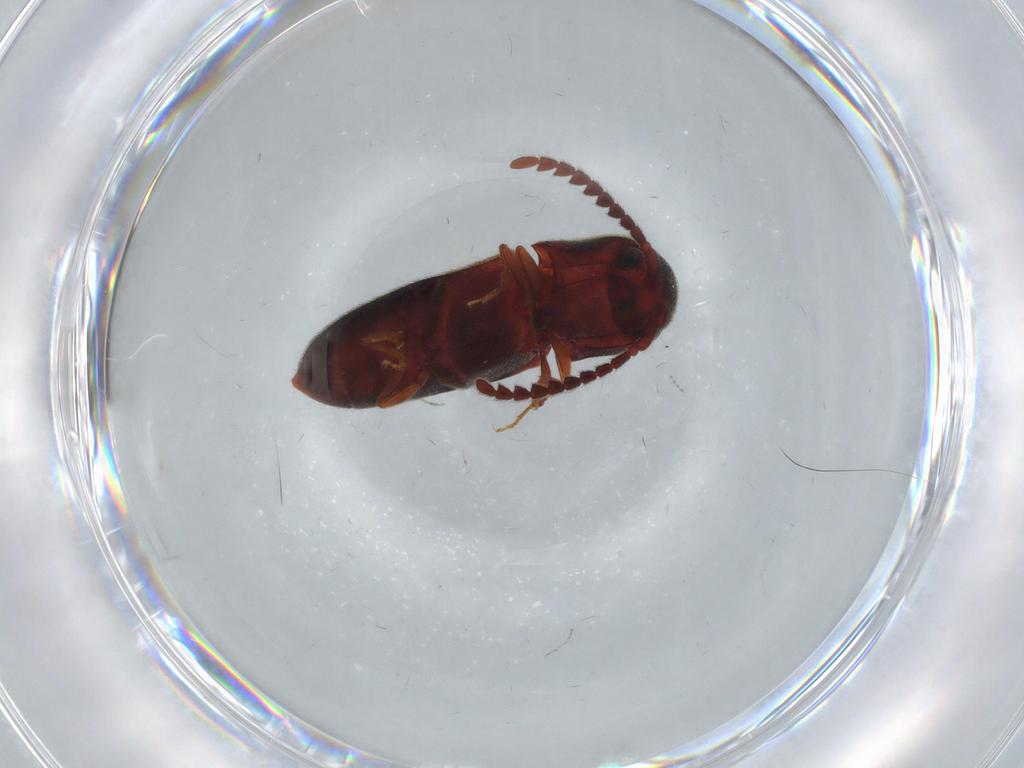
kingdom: Animalia
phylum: Arthropoda
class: Insecta
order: Coleoptera
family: Eucnemidae
